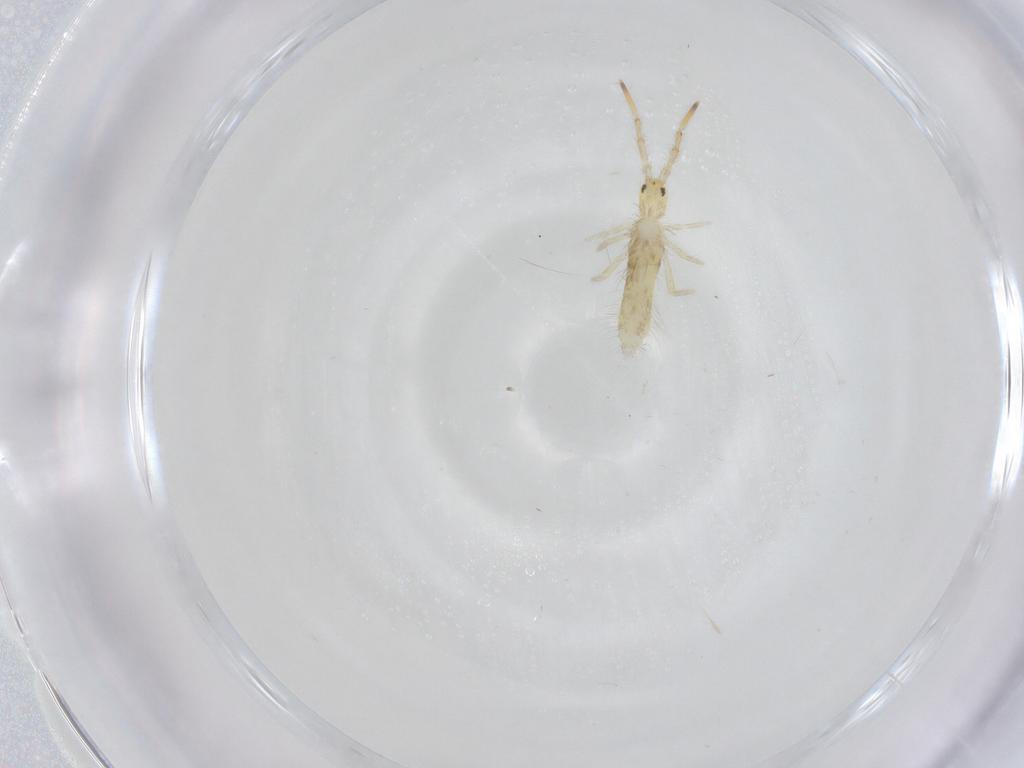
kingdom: Animalia
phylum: Arthropoda
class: Collembola
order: Entomobryomorpha
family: Entomobryidae
